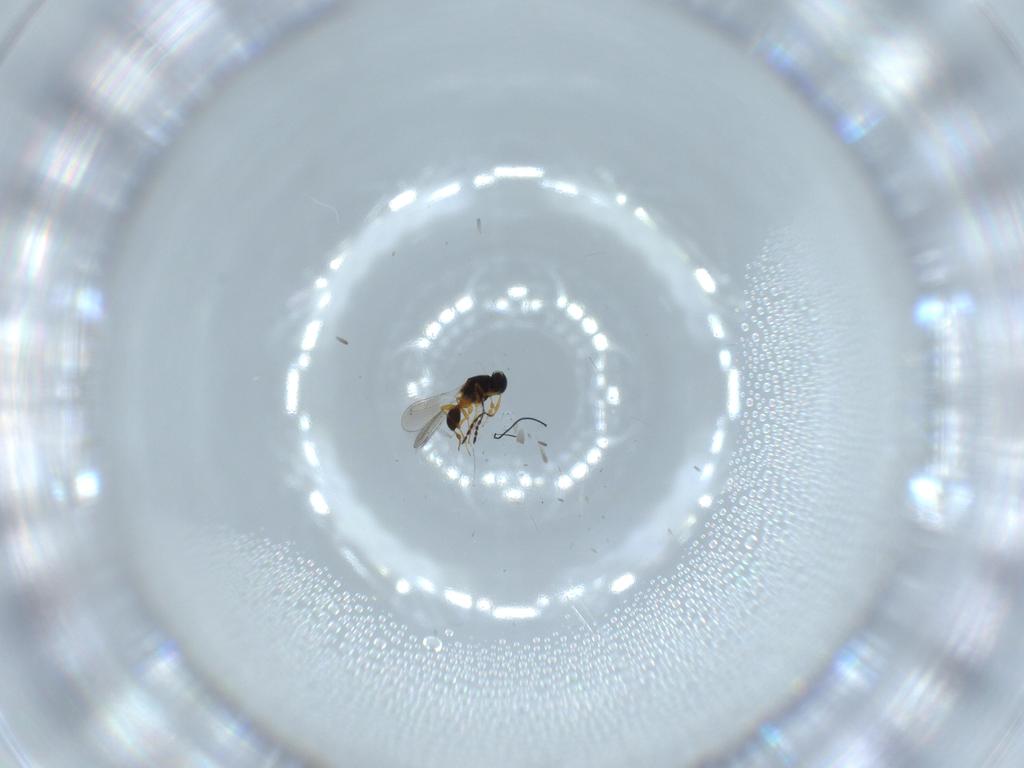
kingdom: Animalia
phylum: Arthropoda
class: Insecta
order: Hymenoptera
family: Platygastridae
